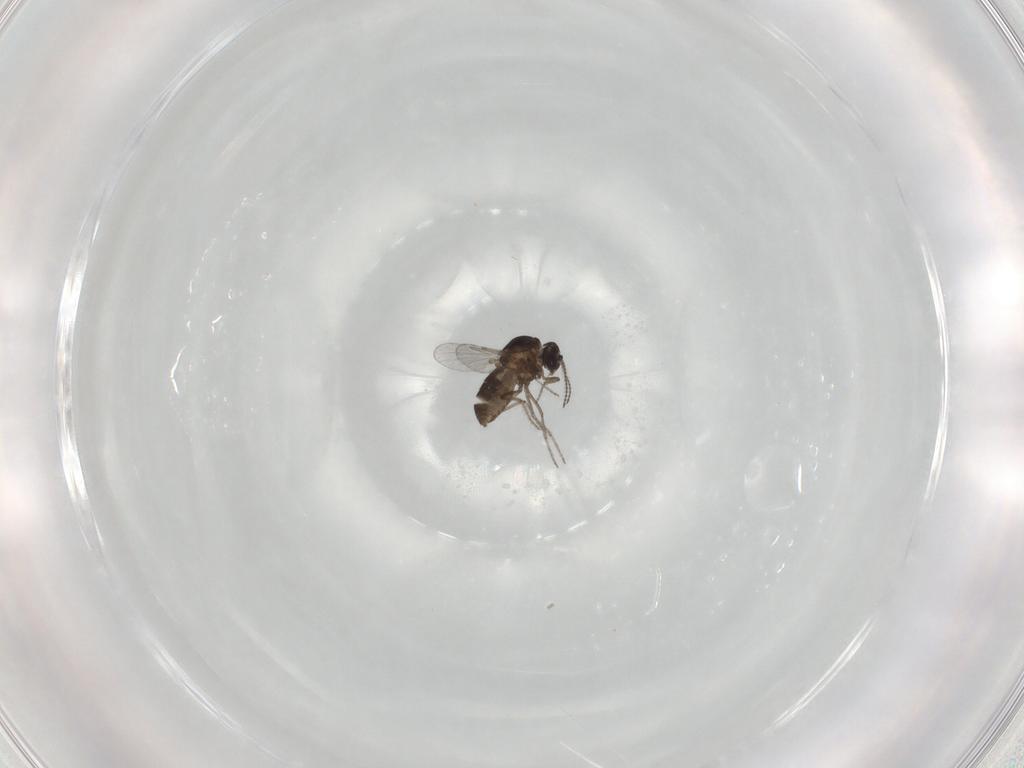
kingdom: Animalia
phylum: Arthropoda
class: Insecta
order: Diptera
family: Ceratopogonidae
